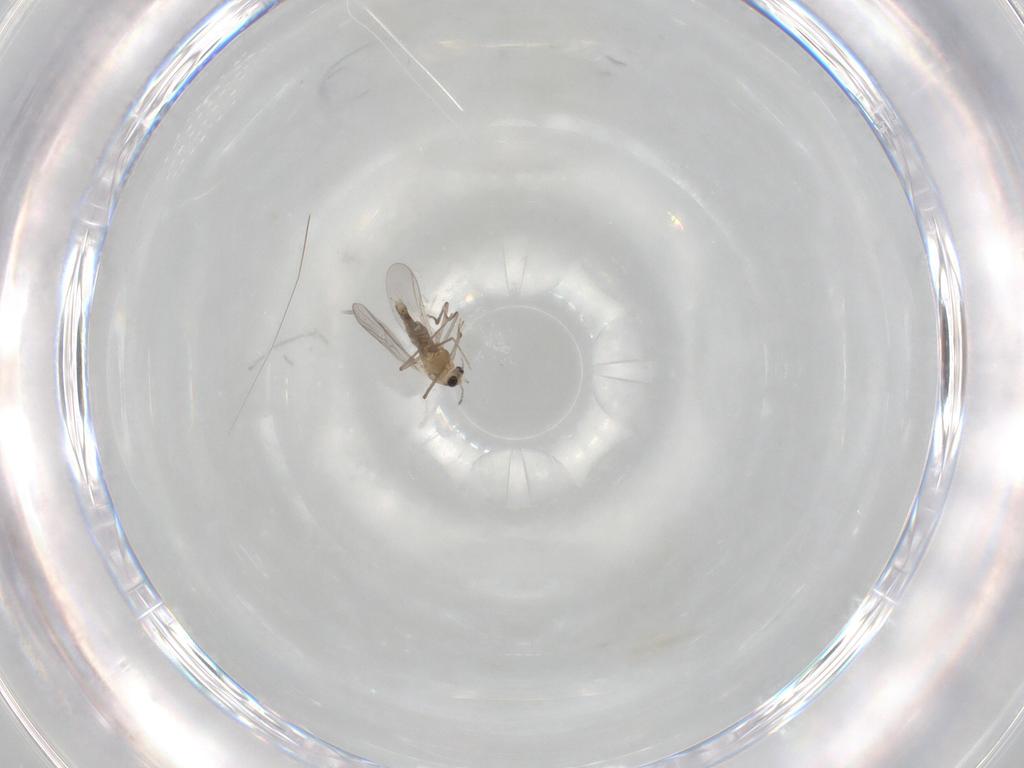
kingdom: Animalia
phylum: Arthropoda
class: Insecta
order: Diptera
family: Chironomidae
